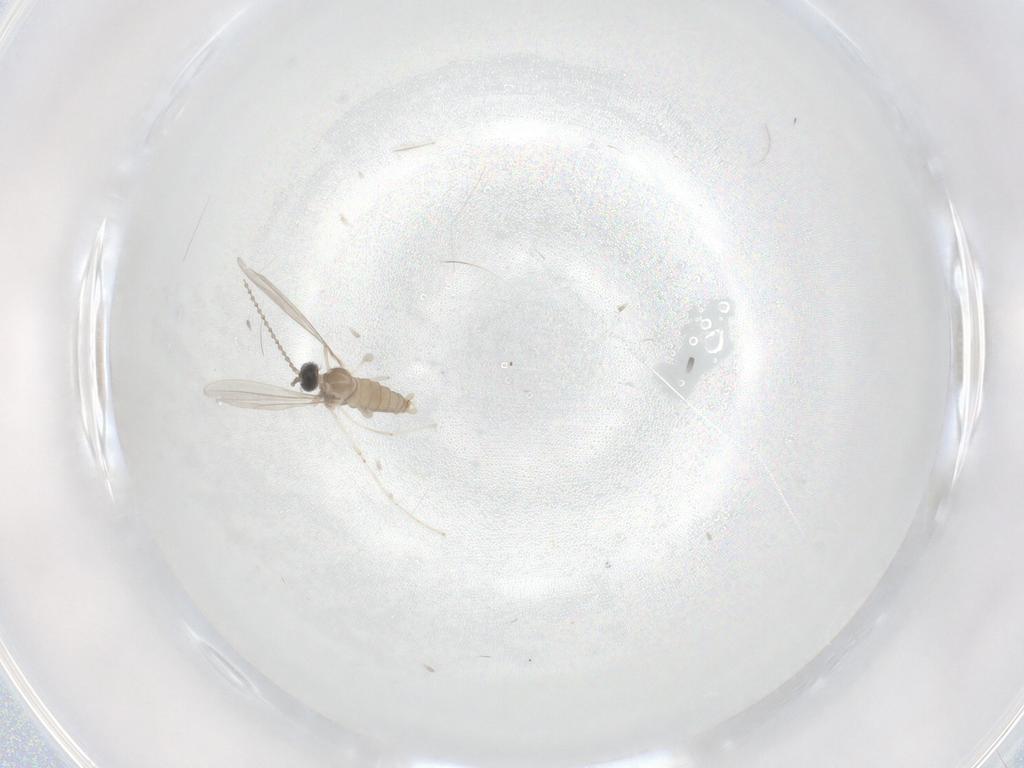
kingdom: Animalia
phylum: Arthropoda
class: Insecta
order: Diptera
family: Cecidomyiidae
